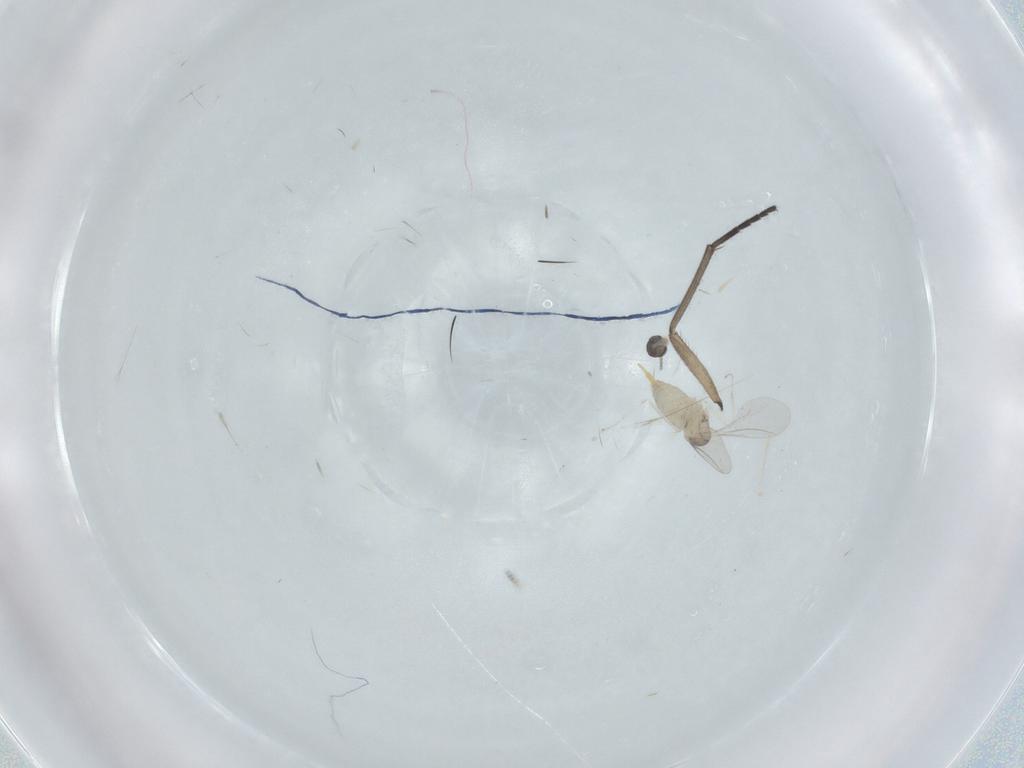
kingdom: Animalia
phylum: Arthropoda
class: Insecta
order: Diptera
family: Cecidomyiidae
